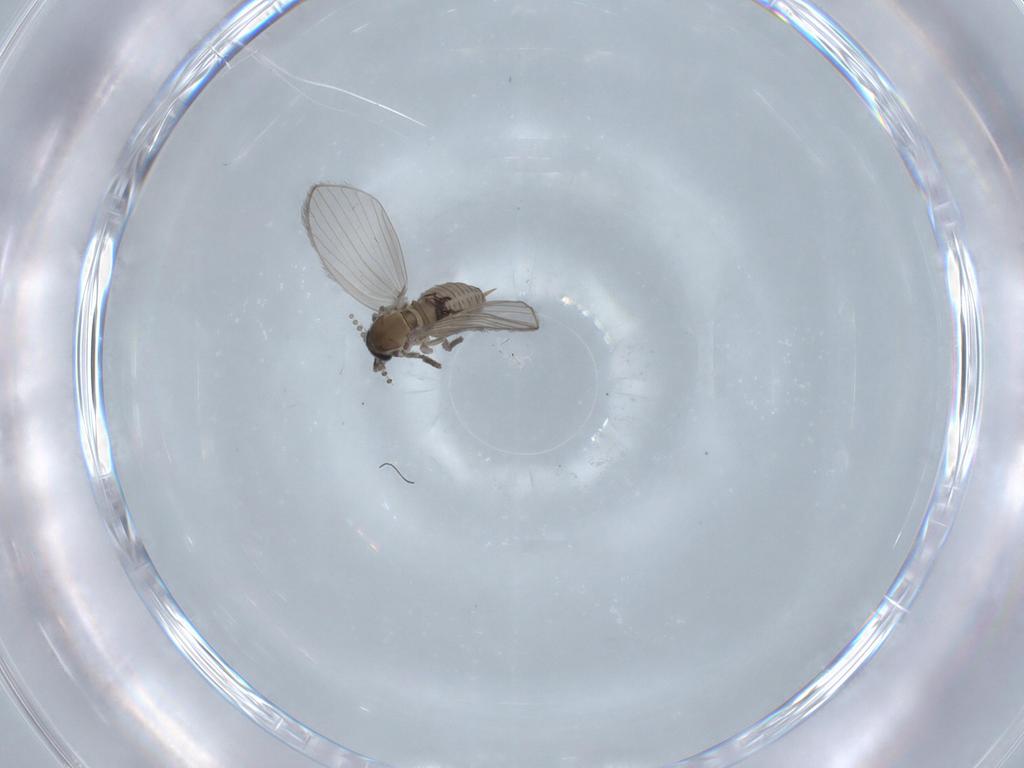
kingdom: Animalia
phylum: Arthropoda
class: Insecta
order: Diptera
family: Psychodidae
